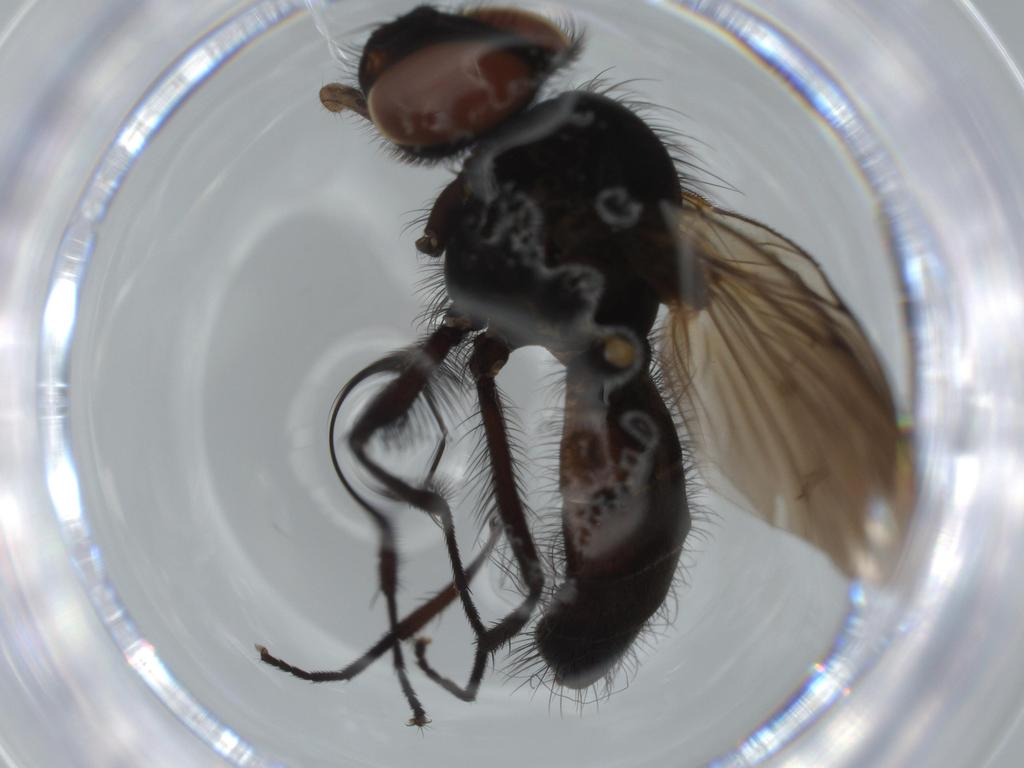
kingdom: Animalia
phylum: Arthropoda
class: Insecta
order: Diptera
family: Fannia
